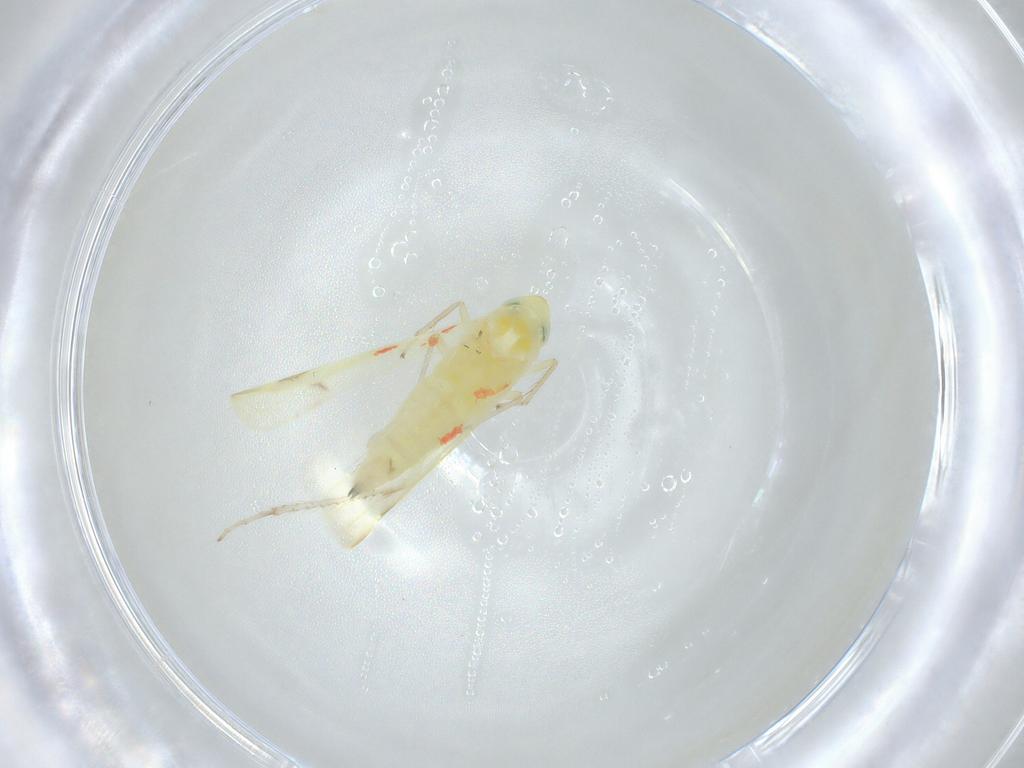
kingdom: Animalia
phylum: Arthropoda
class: Insecta
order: Hemiptera
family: Cicadellidae
